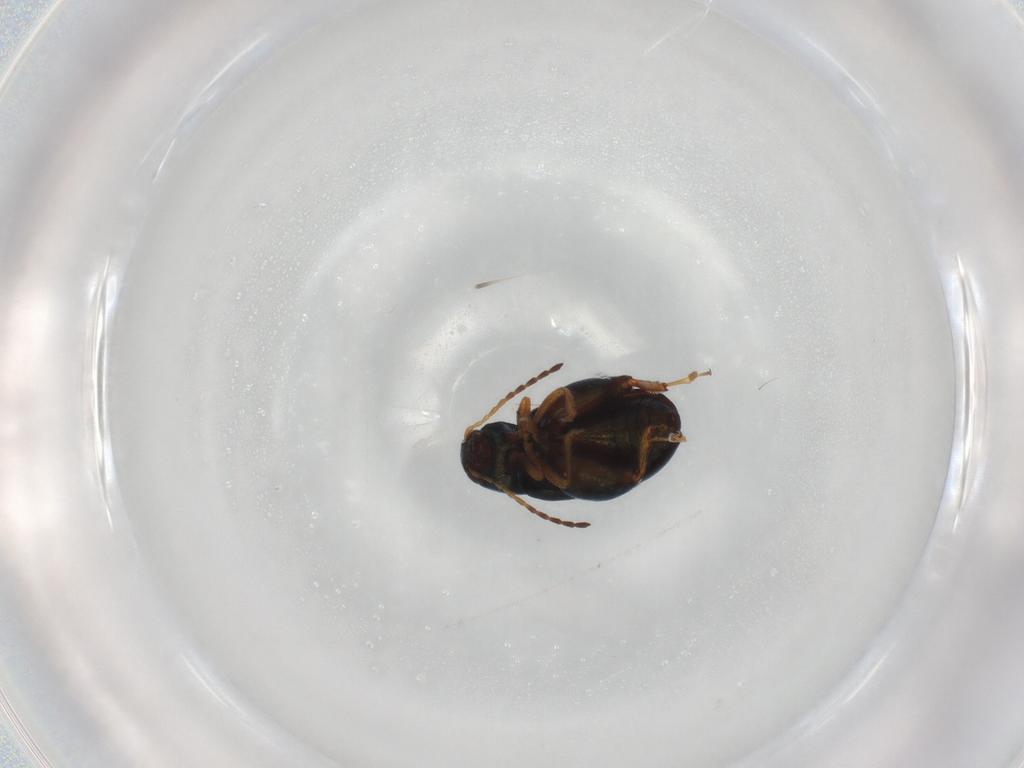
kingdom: Animalia
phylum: Arthropoda
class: Insecta
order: Coleoptera
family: Chrysomelidae
